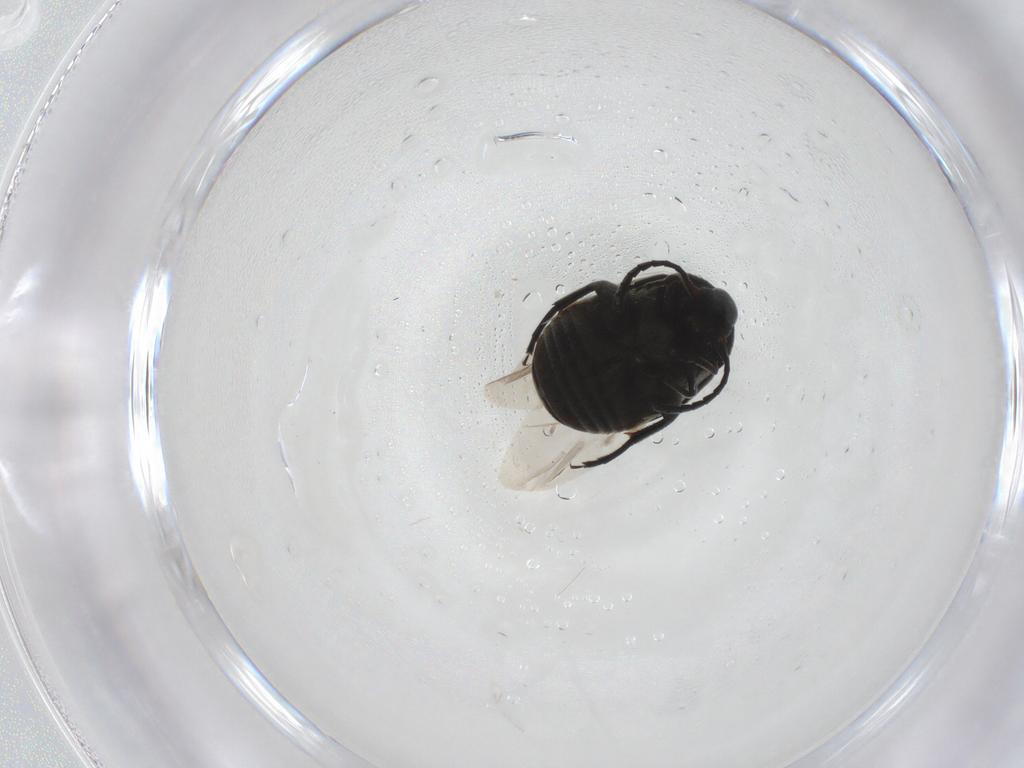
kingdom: Animalia
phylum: Arthropoda
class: Insecta
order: Coleoptera
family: Chrysomelidae
